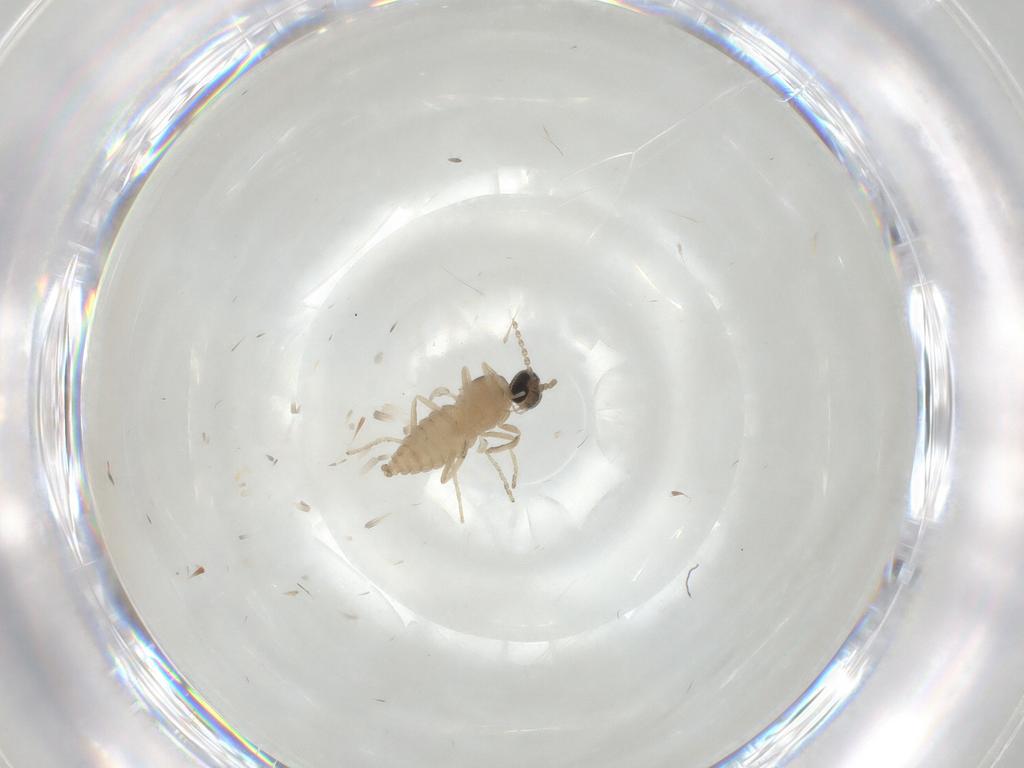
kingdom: Animalia
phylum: Arthropoda
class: Insecta
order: Diptera
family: Cecidomyiidae
